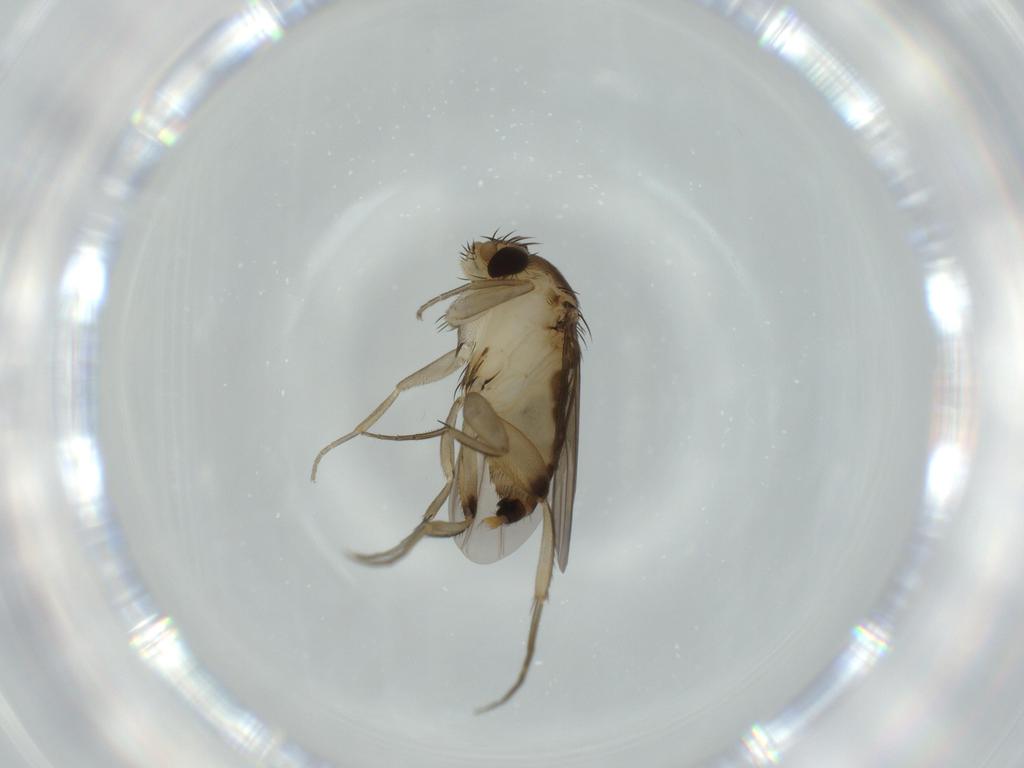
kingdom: Animalia
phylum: Arthropoda
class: Insecta
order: Diptera
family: Phoridae
